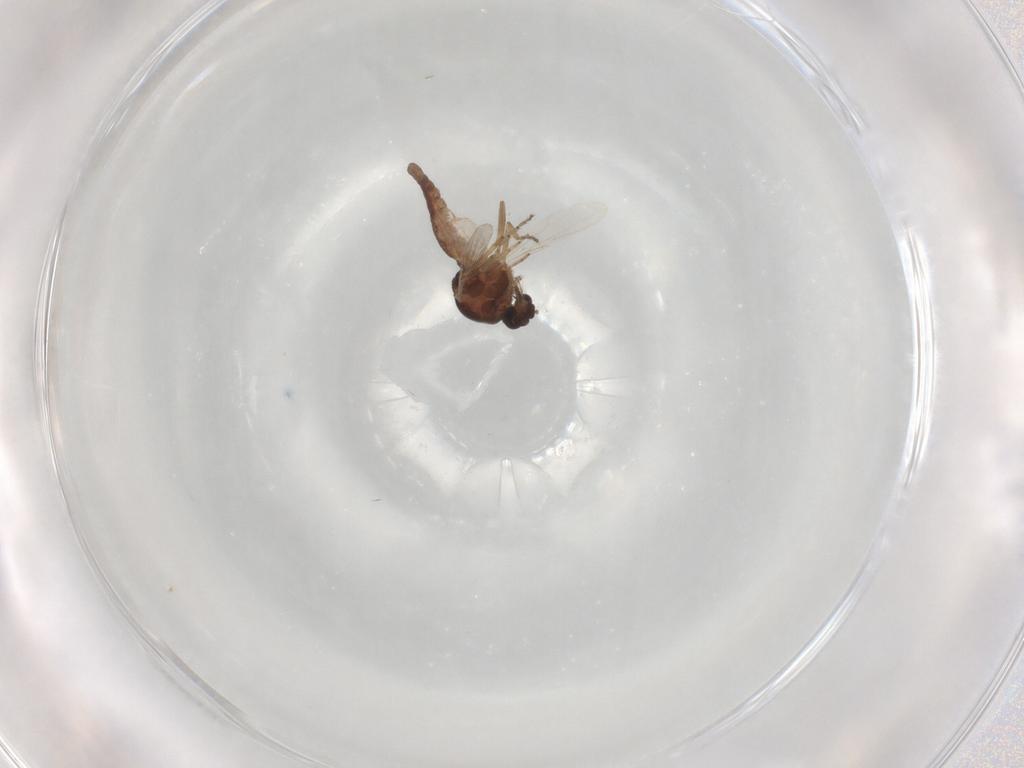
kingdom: Animalia
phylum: Arthropoda
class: Insecta
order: Diptera
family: Ceratopogonidae
